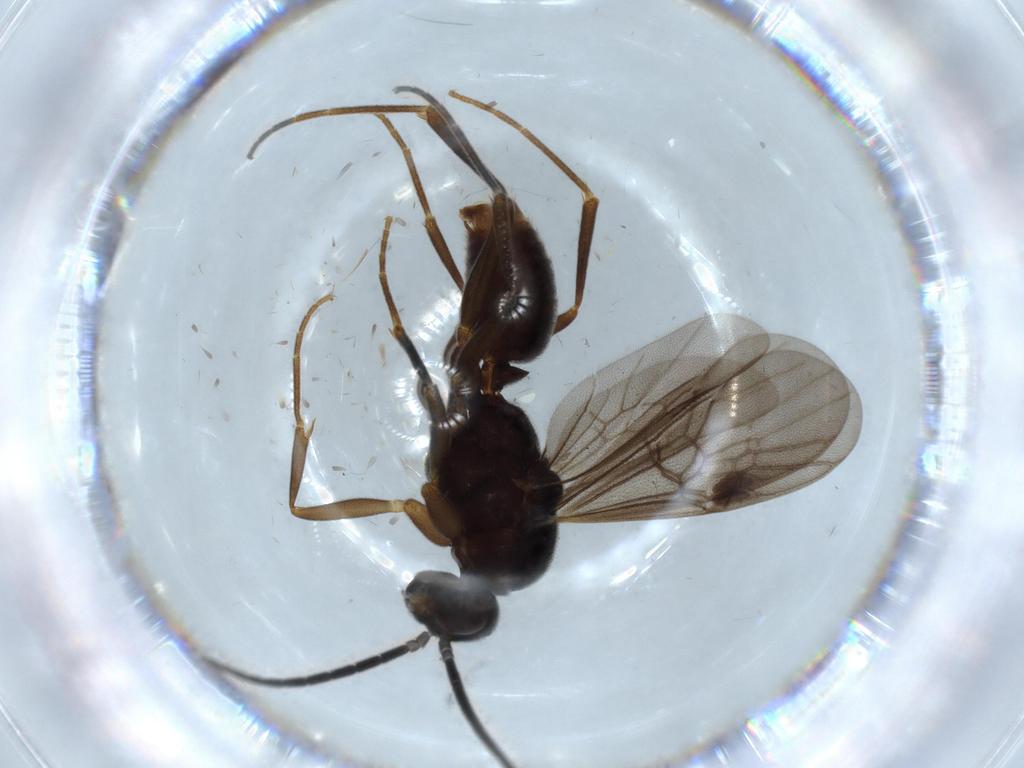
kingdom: Animalia
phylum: Arthropoda
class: Insecta
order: Hymenoptera
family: Formicidae
